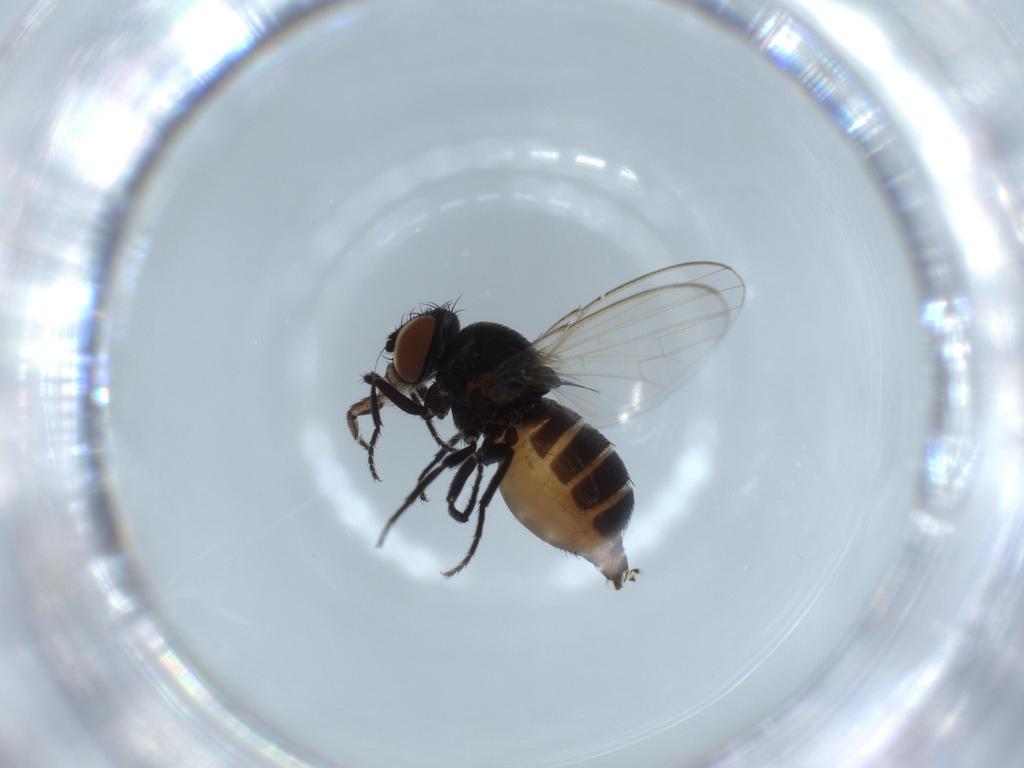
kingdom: Animalia
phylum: Arthropoda
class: Insecta
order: Diptera
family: Milichiidae
